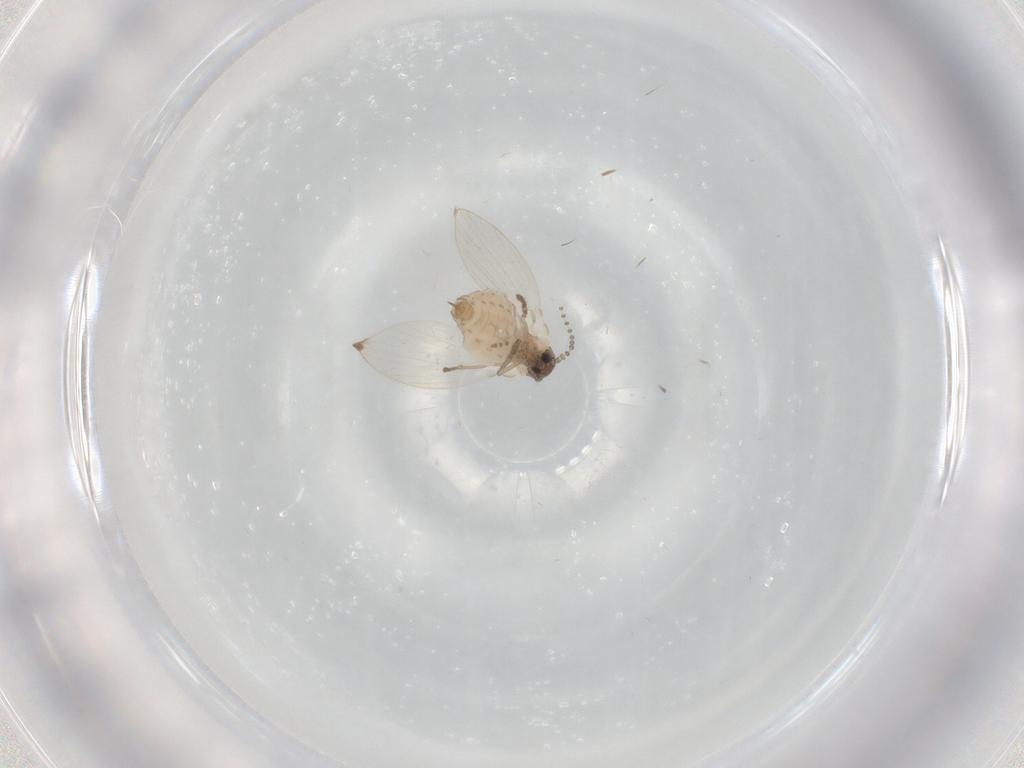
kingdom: Animalia
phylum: Arthropoda
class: Insecta
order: Diptera
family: Psychodidae
